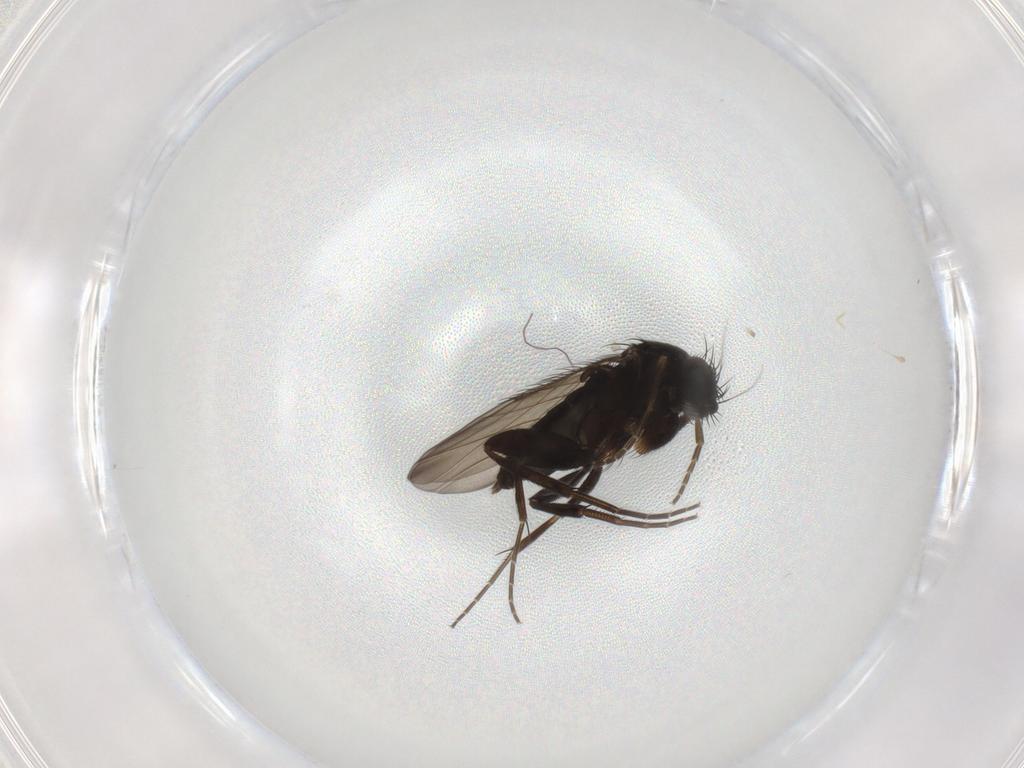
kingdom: Animalia
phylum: Arthropoda
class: Insecta
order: Diptera
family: Phoridae
